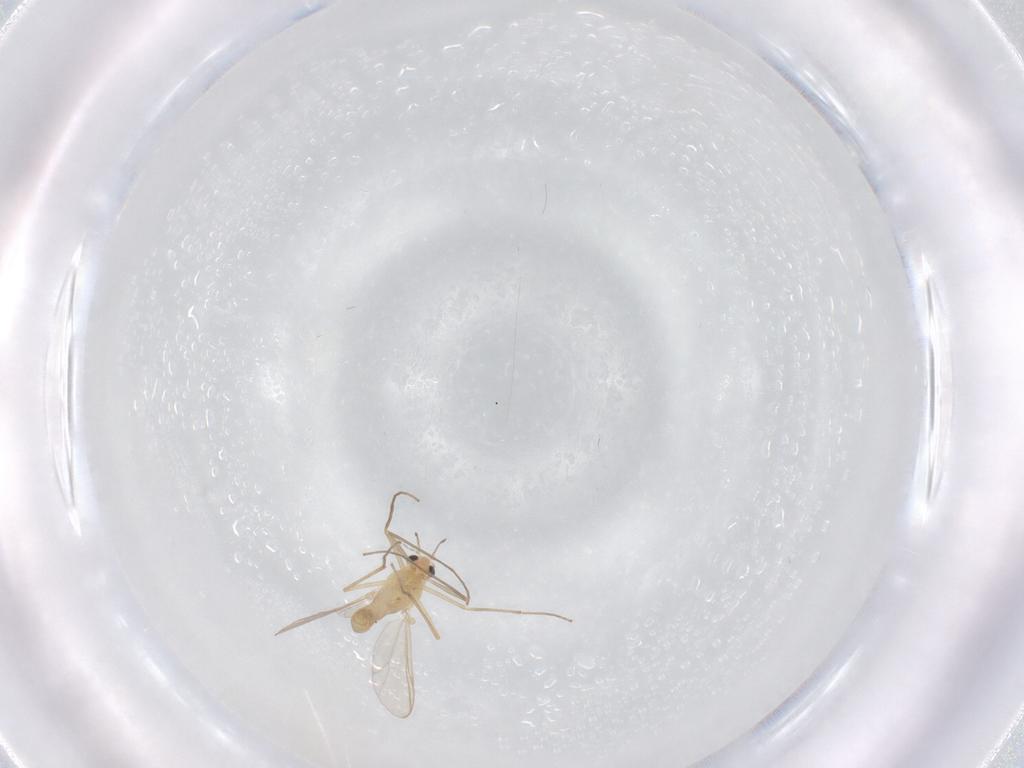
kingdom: Animalia
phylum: Arthropoda
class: Insecta
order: Diptera
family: Chironomidae
